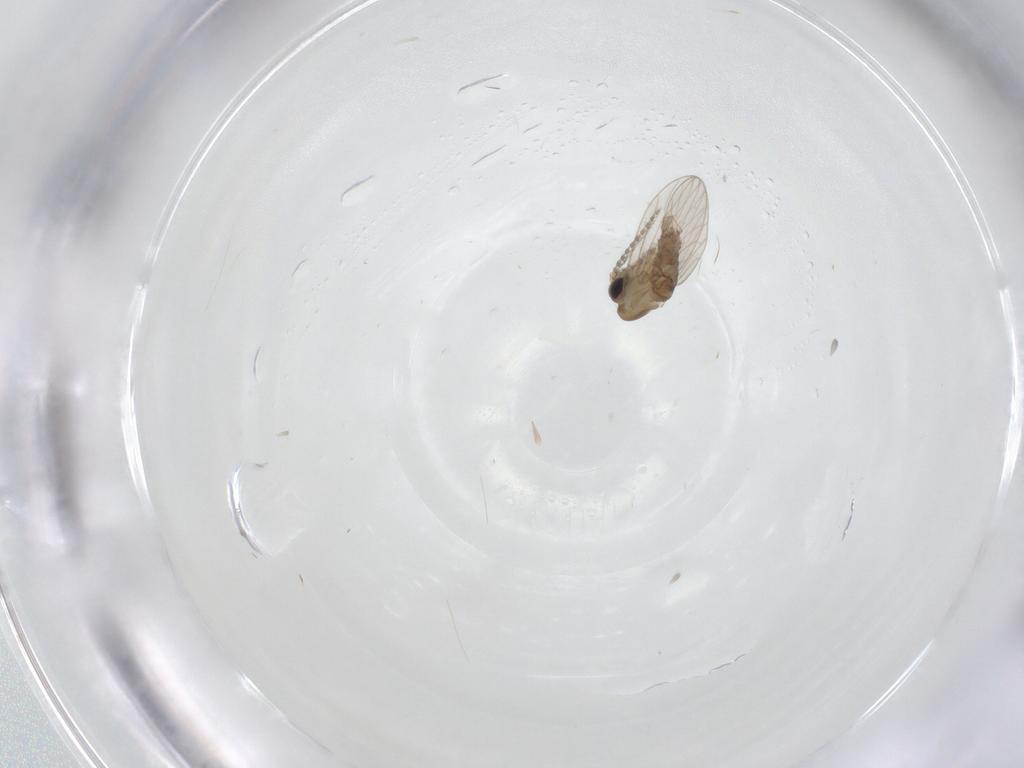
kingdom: Animalia
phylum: Arthropoda
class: Insecta
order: Diptera
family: Psychodidae
